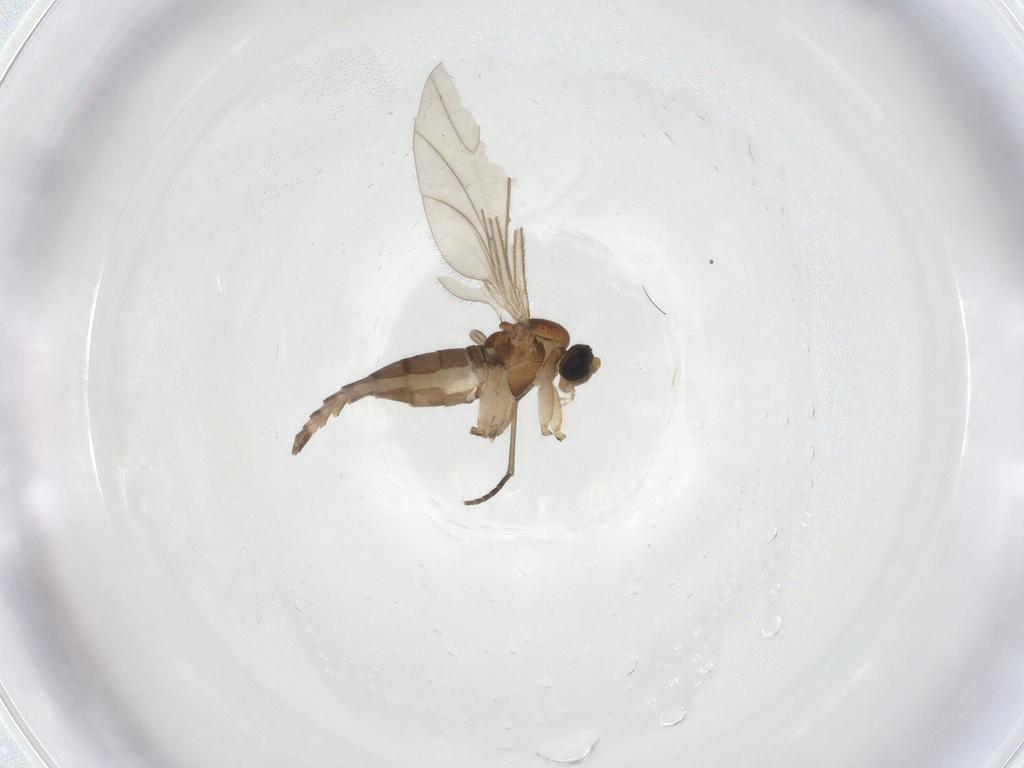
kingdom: Animalia
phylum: Arthropoda
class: Insecta
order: Diptera
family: Sciaridae
